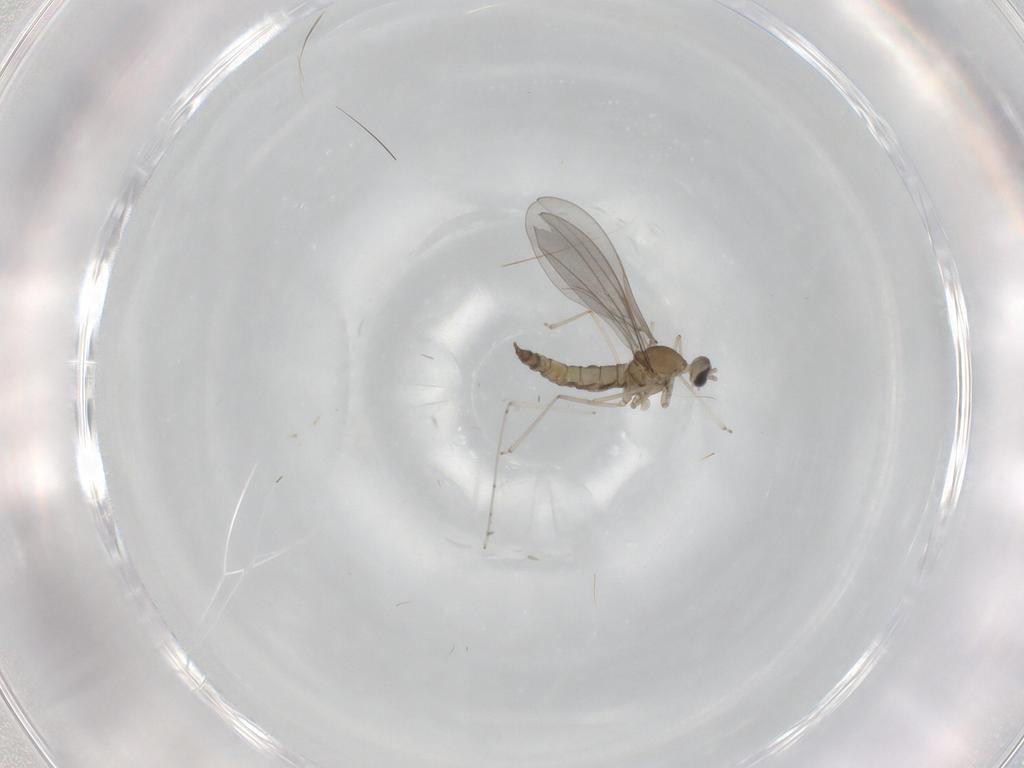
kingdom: Animalia
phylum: Arthropoda
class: Insecta
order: Diptera
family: Cecidomyiidae
